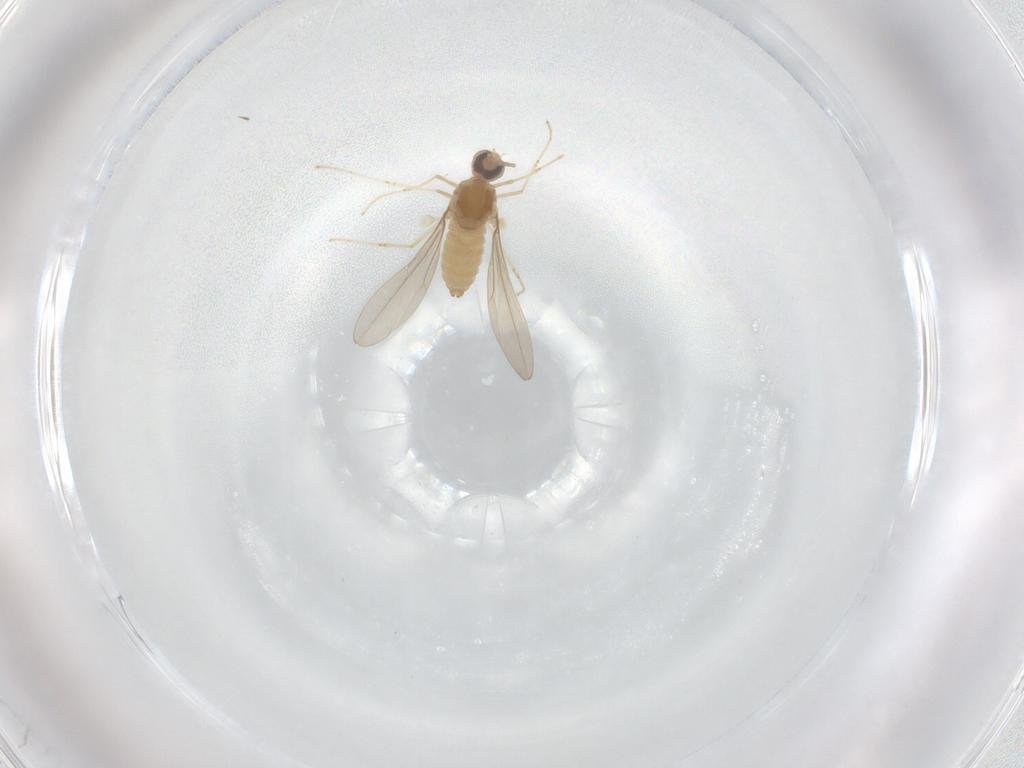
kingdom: Animalia
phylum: Arthropoda
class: Insecta
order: Diptera
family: Cecidomyiidae
